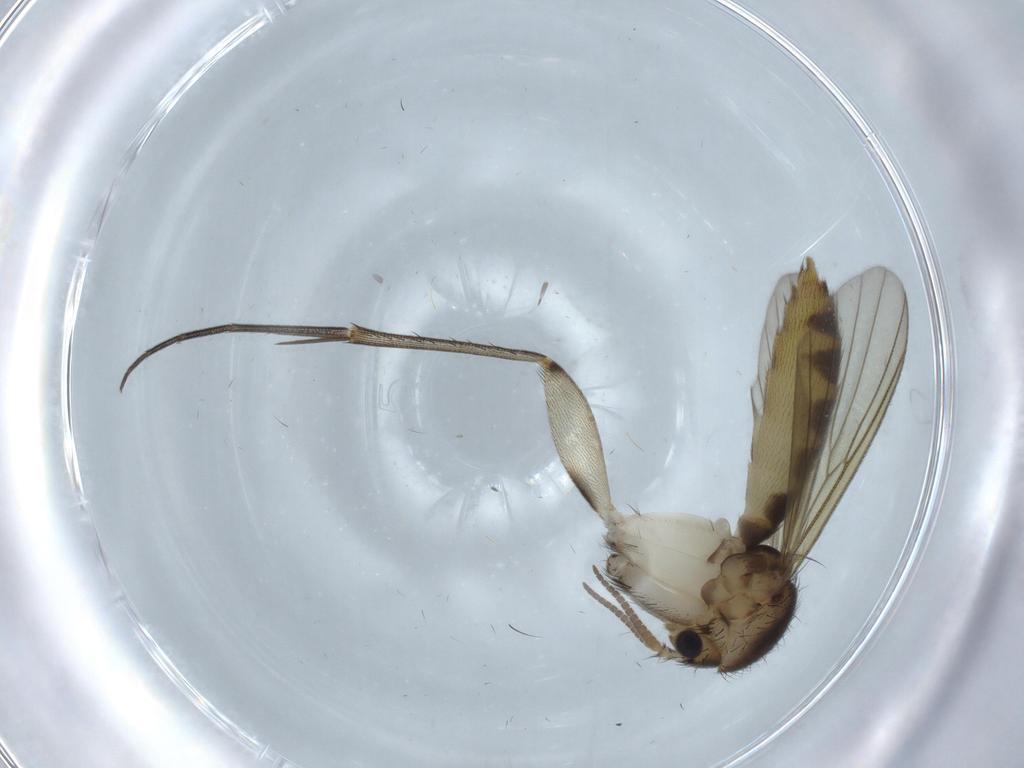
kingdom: Animalia
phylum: Arthropoda
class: Insecta
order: Diptera
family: Mycetophilidae
